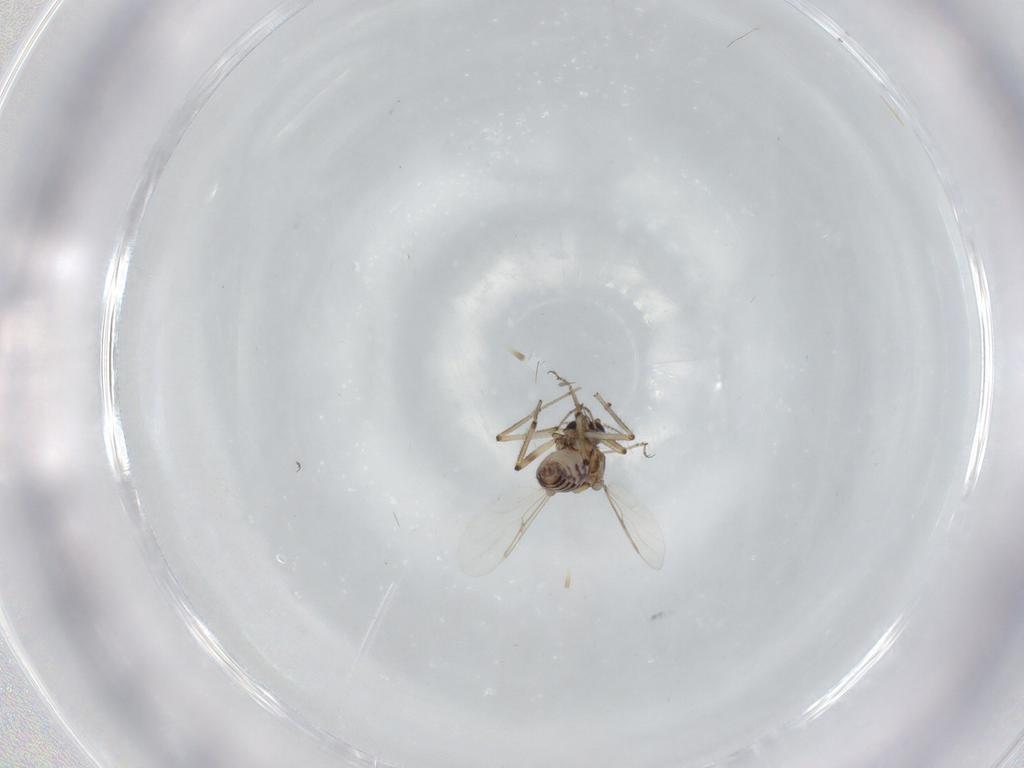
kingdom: Animalia
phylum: Arthropoda
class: Insecta
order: Diptera
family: Ceratopogonidae
